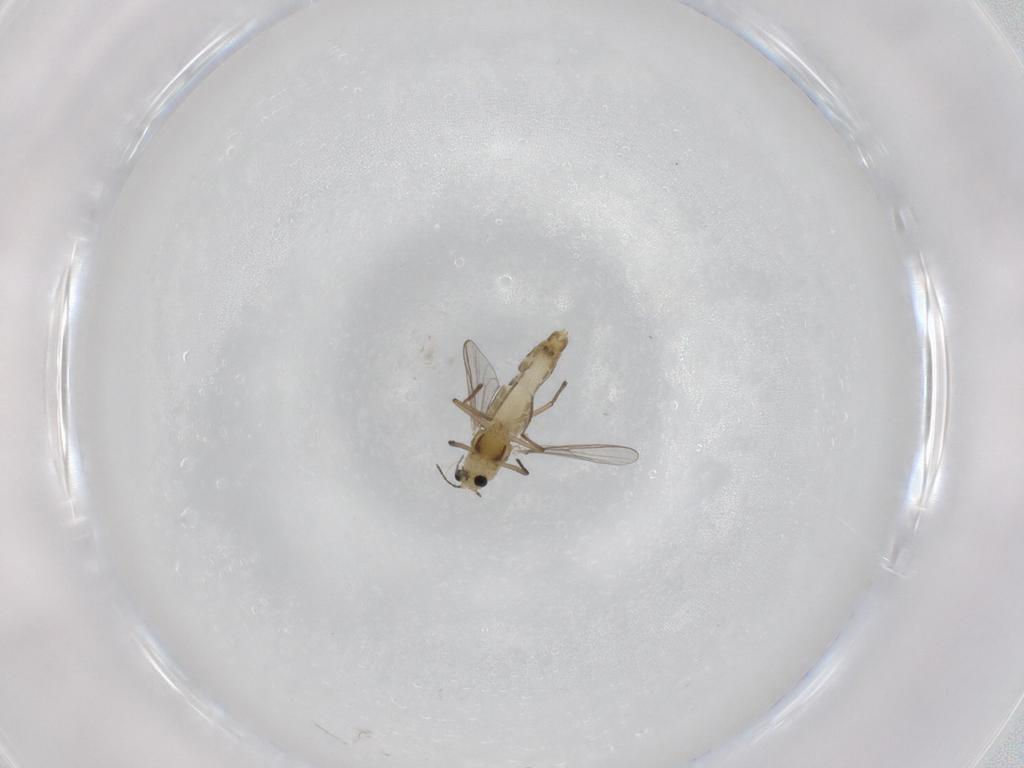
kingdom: Animalia
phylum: Arthropoda
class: Insecta
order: Diptera
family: Chironomidae
